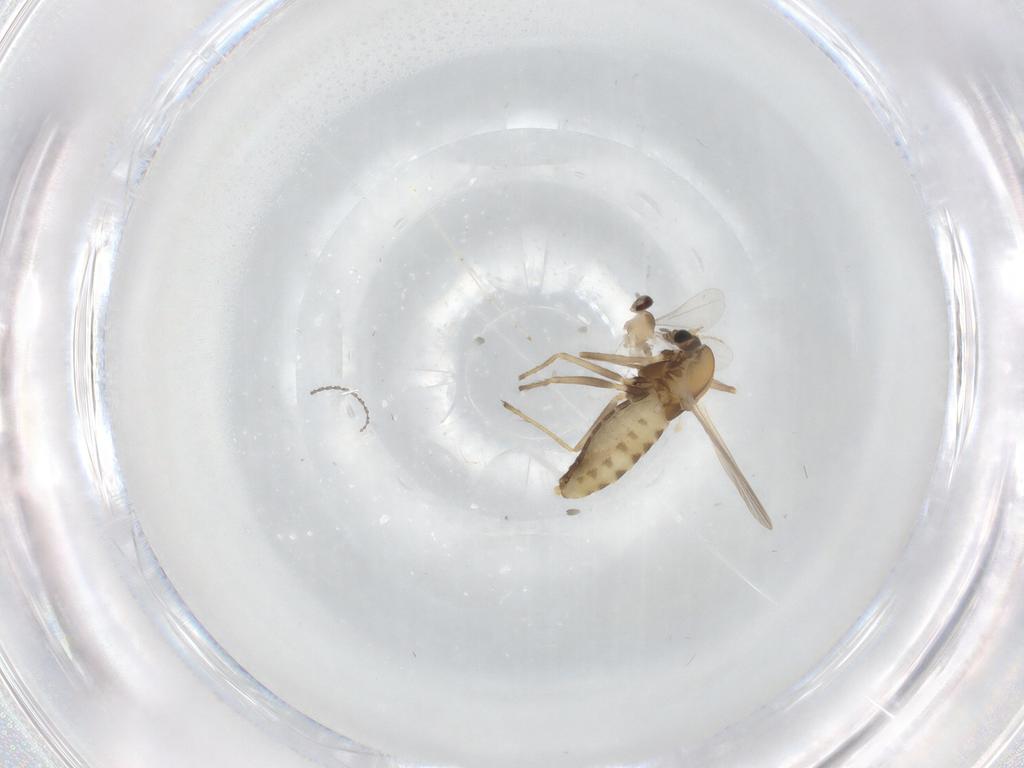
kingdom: Animalia
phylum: Arthropoda
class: Insecta
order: Diptera
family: Chironomidae
